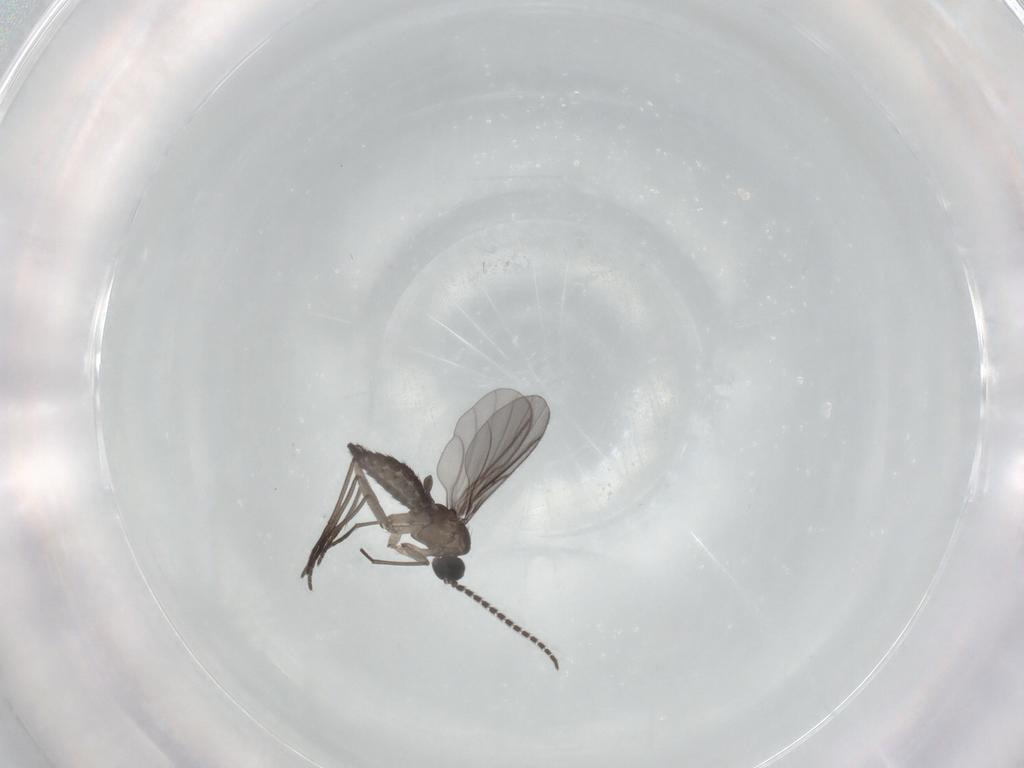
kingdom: Animalia
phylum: Arthropoda
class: Insecta
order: Diptera
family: Dolichopodidae
